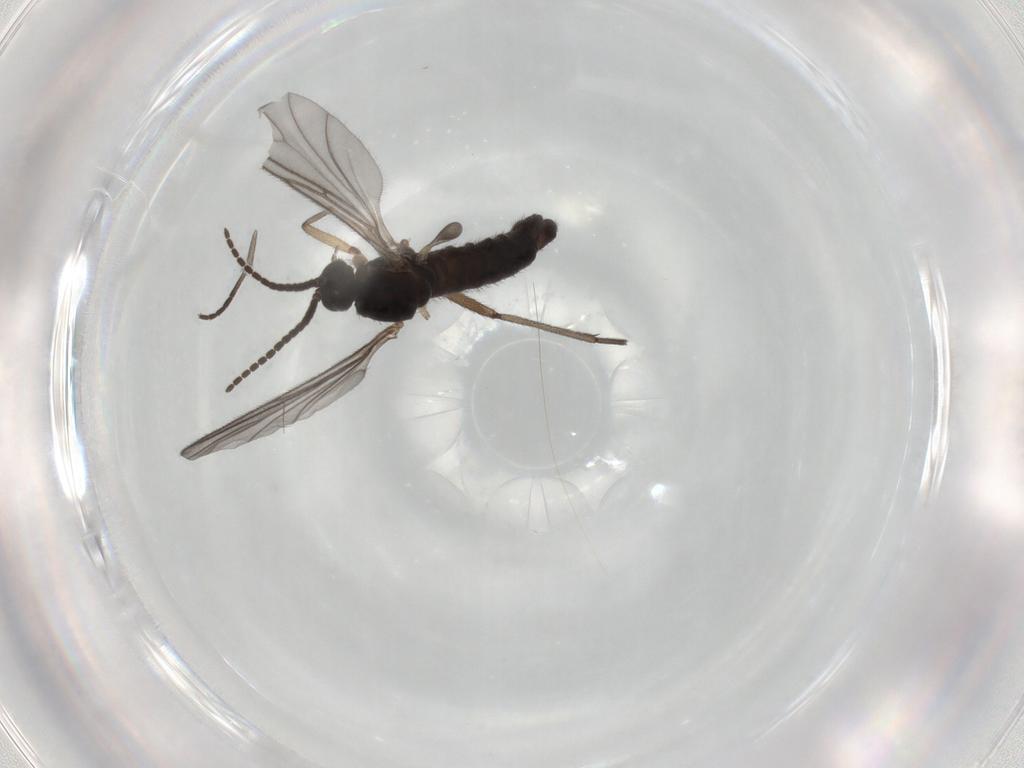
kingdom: Animalia
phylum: Arthropoda
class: Insecta
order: Diptera
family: Sciaridae
